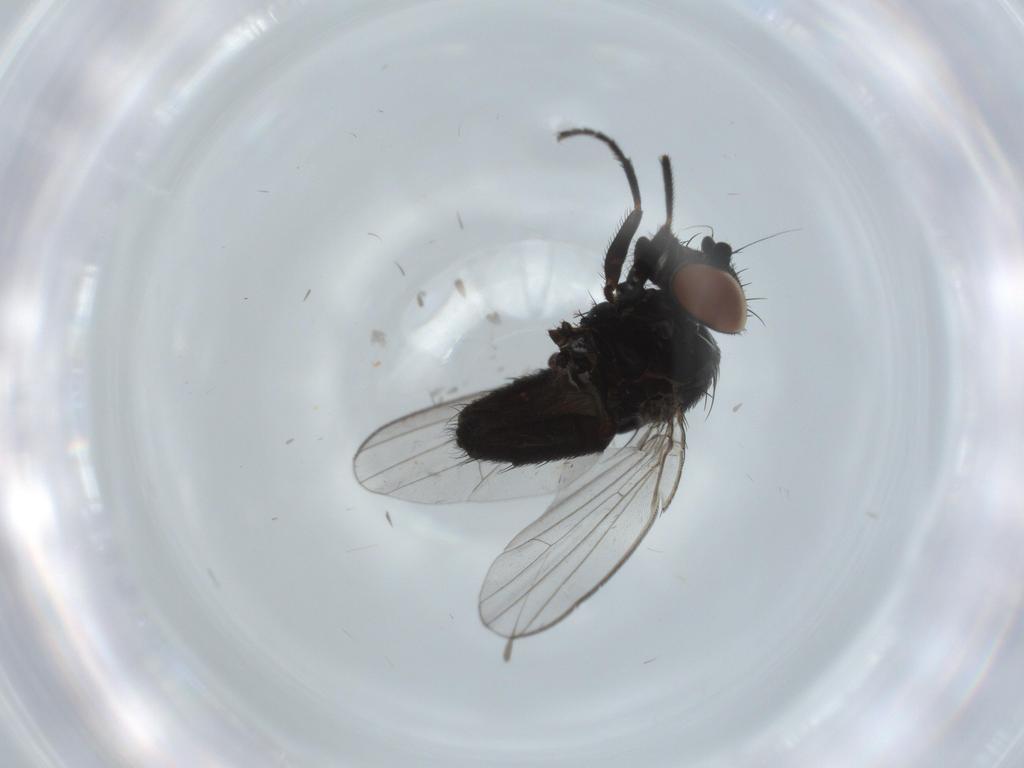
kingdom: Animalia
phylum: Arthropoda
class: Insecta
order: Diptera
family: Milichiidae
